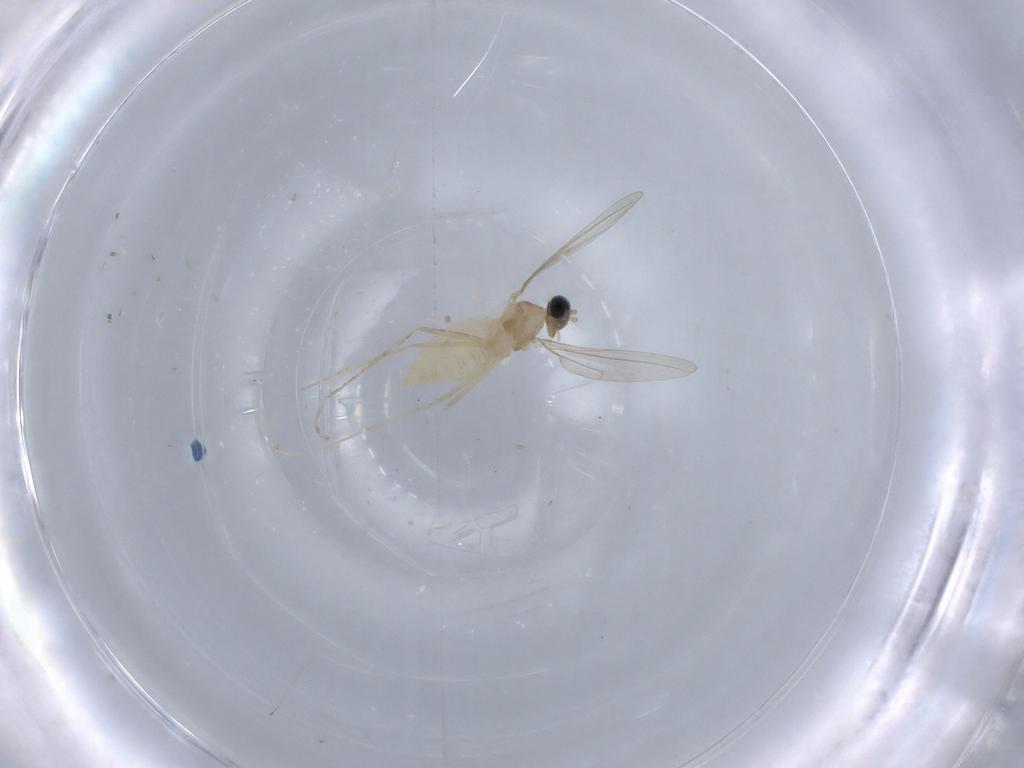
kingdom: Animalia
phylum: Arthropoda
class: Insecta
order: Diptera
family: Cecidomyiidae
